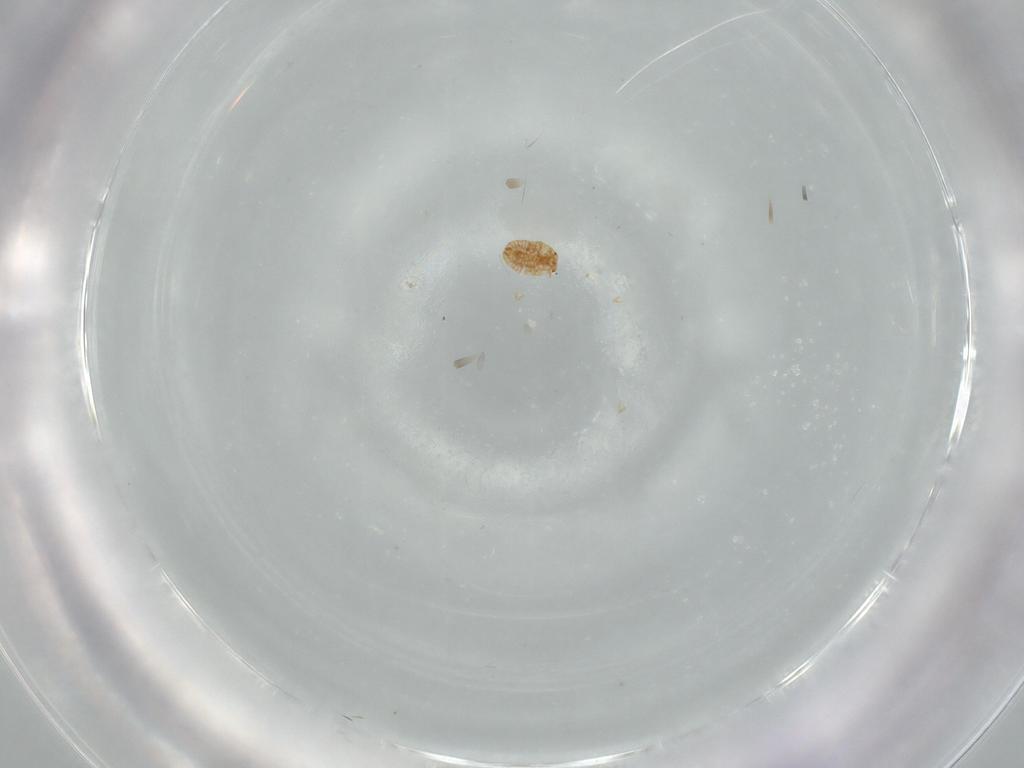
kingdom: Animalia
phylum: Arthropoda
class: Insecta
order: Hemiptera
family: Coccidae
